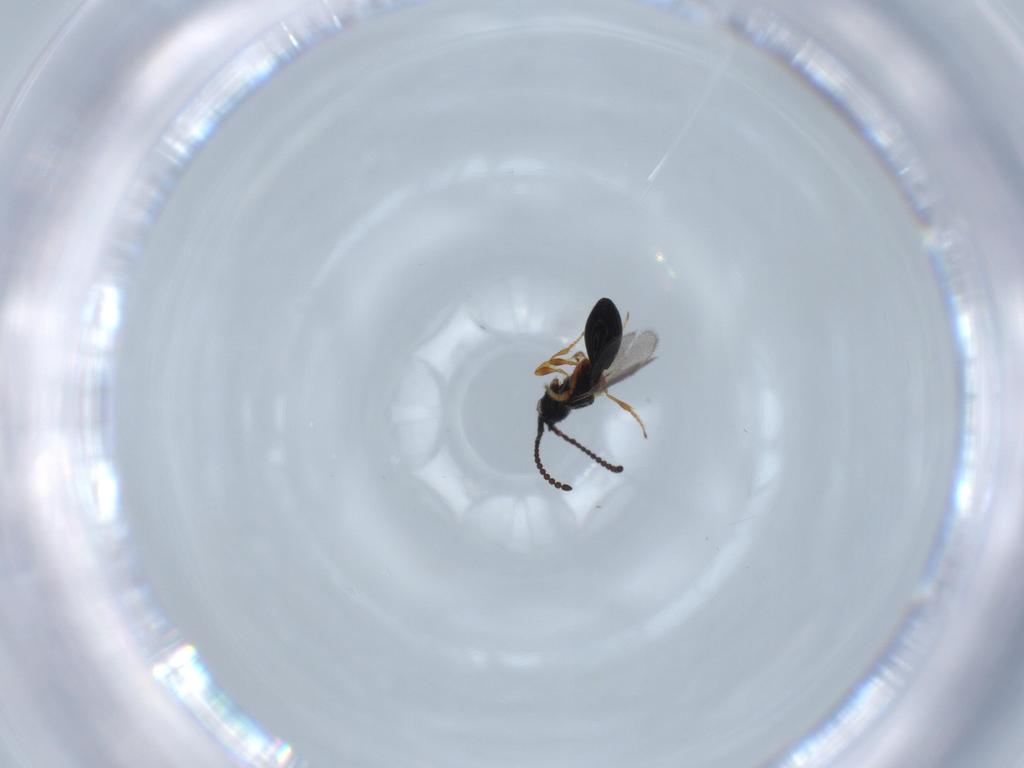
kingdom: Animalia
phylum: Arthropoda
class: Insecta
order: Hymenoptera
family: Diapriidae
